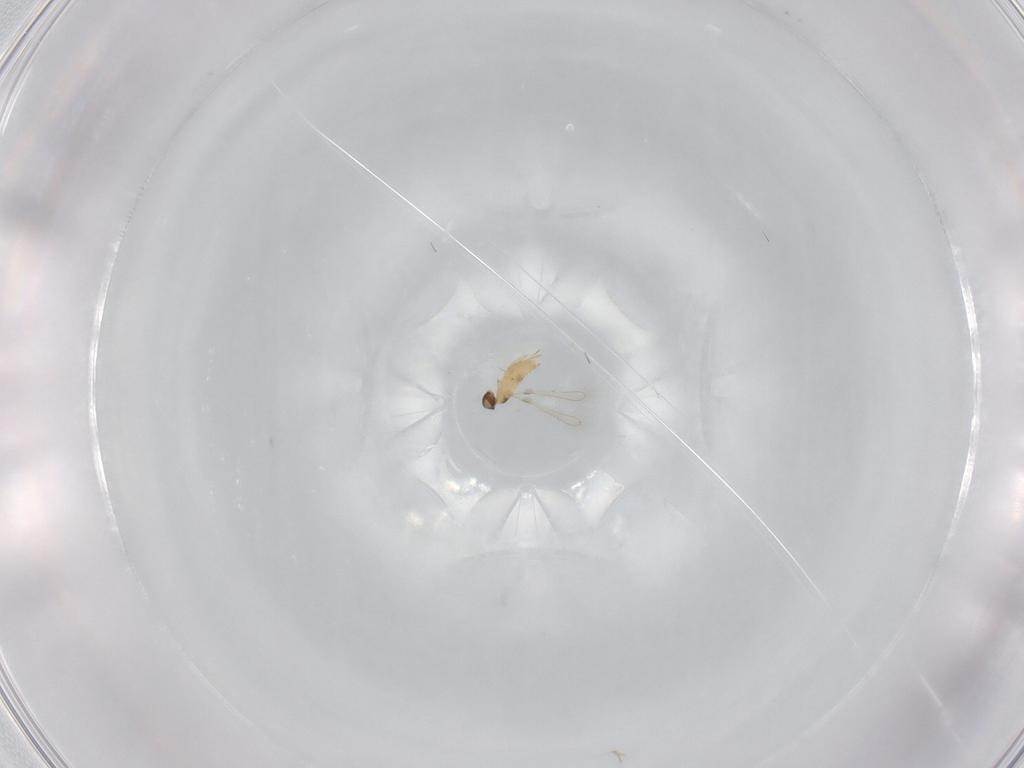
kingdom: Animalia
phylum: Arthropoda
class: Insecta
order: Hymenoptera
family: Mymaridae
